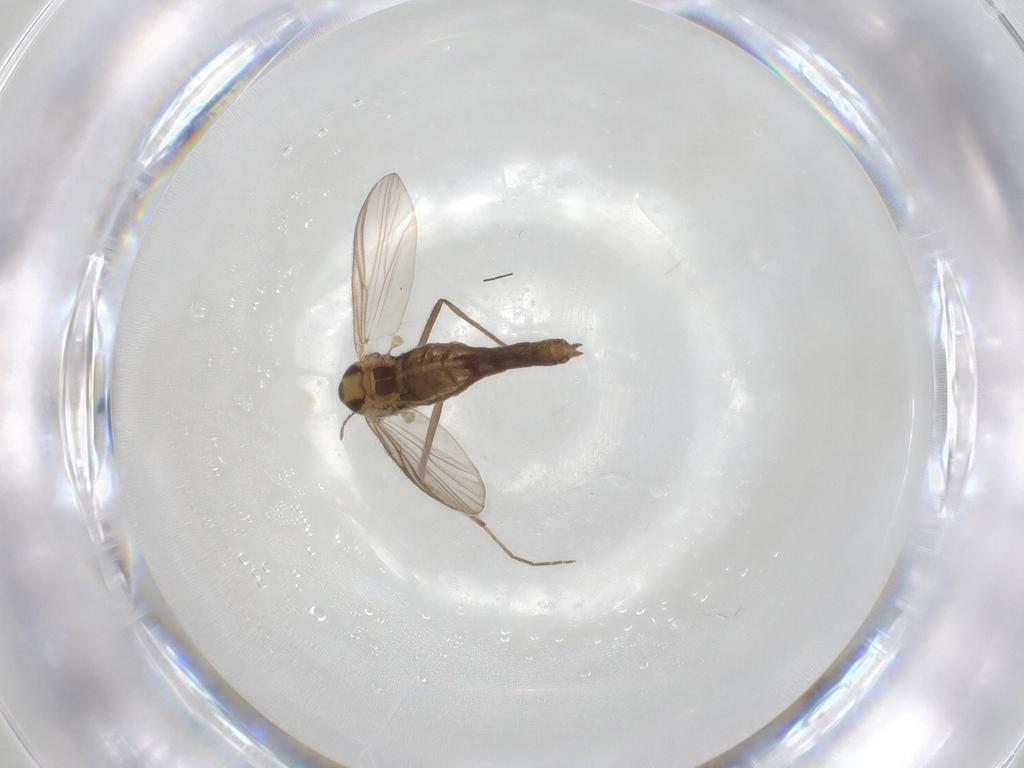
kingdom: Animalia
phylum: Arthropoda
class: Insecta
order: Diptera
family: Chironomidae
